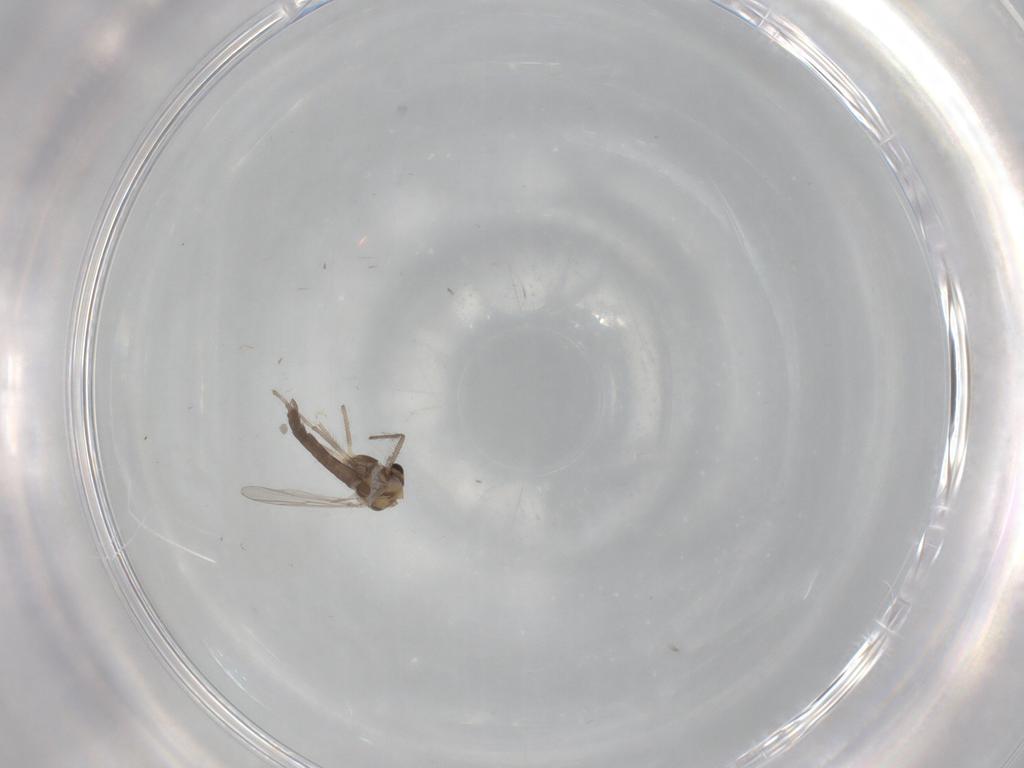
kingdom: Animalia
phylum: Arthropoda
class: Insecta
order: Diptera
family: Chironomidae
